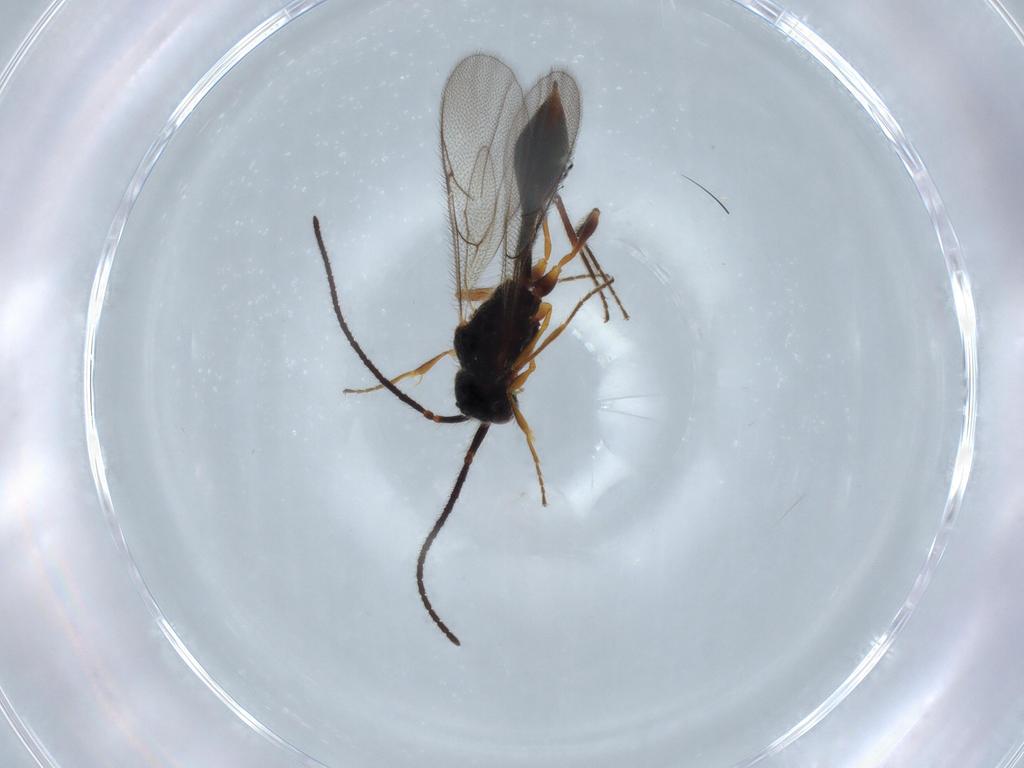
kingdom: Animalia
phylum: Arthropoda
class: Insecta
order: Hymenoptera
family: Diapriidae
